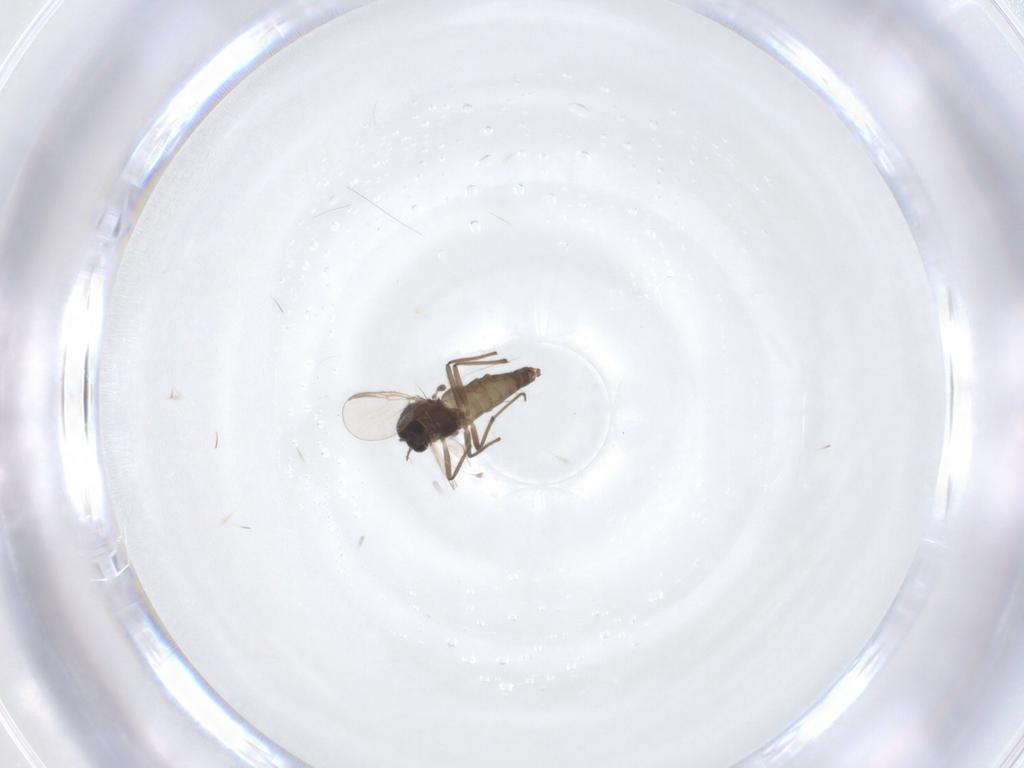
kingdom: Animalia
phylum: Arthropoda
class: Insecta
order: Diptera
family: Chironomidae
